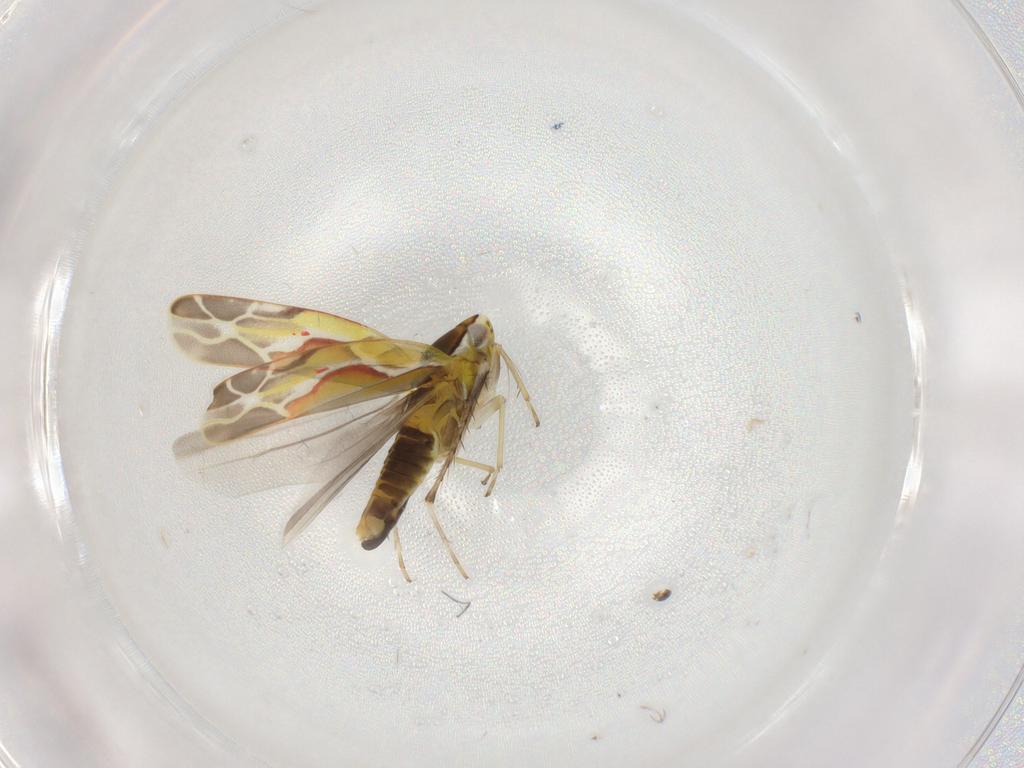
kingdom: Animalia
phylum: Arthropoda
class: Insecta
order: Hemiptera
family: Cicadellidae
